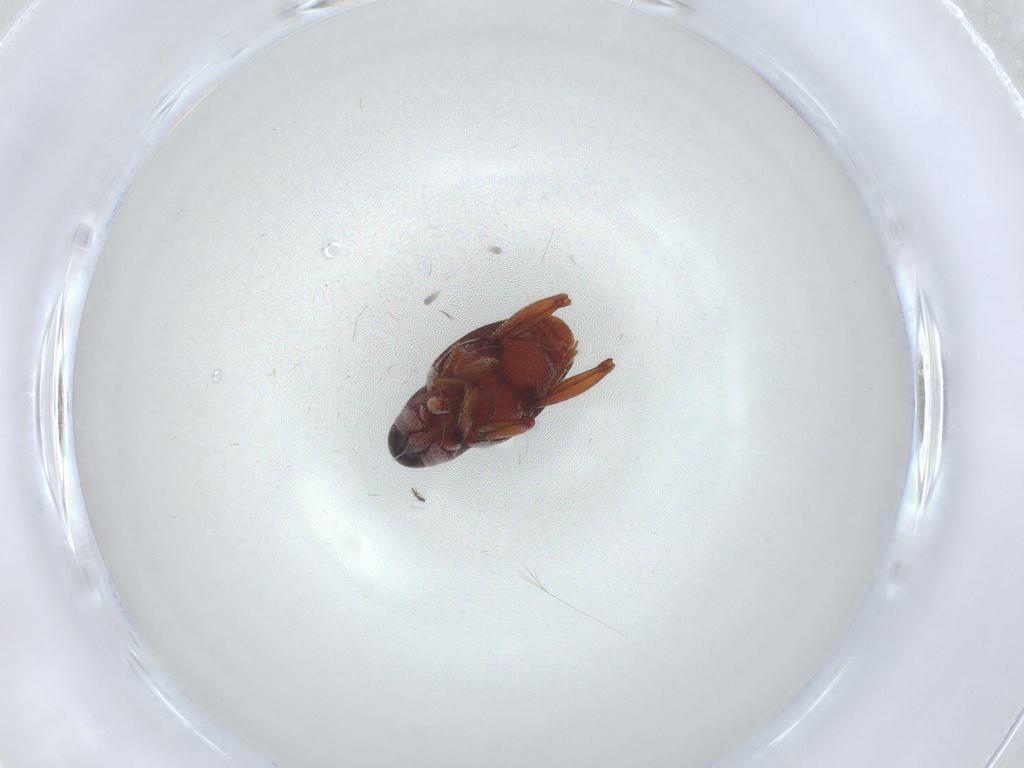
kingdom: Animalia
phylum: Arthropoda
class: Insecta
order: Coleoptera
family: Curculionidae
